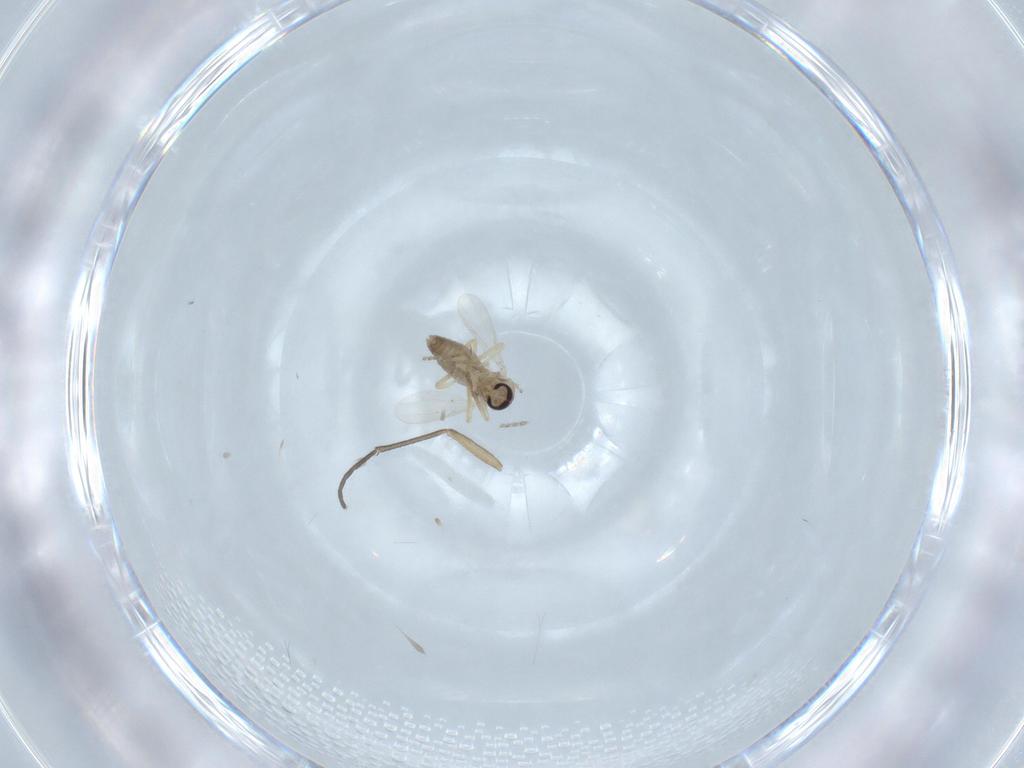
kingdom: Animalia
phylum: Arthropoda
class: Insecta
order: Diptera
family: Ceratopogonidae
